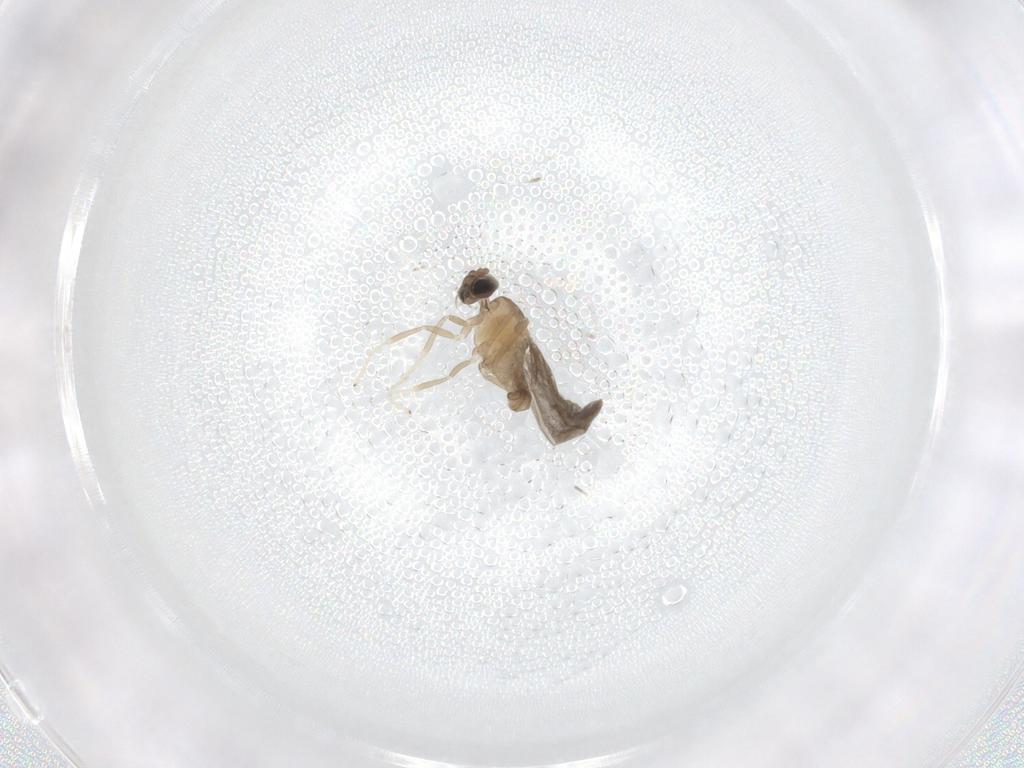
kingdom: Animalia
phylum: Arthropoda
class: Insecta
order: Diptera
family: Cecidomyiidae
